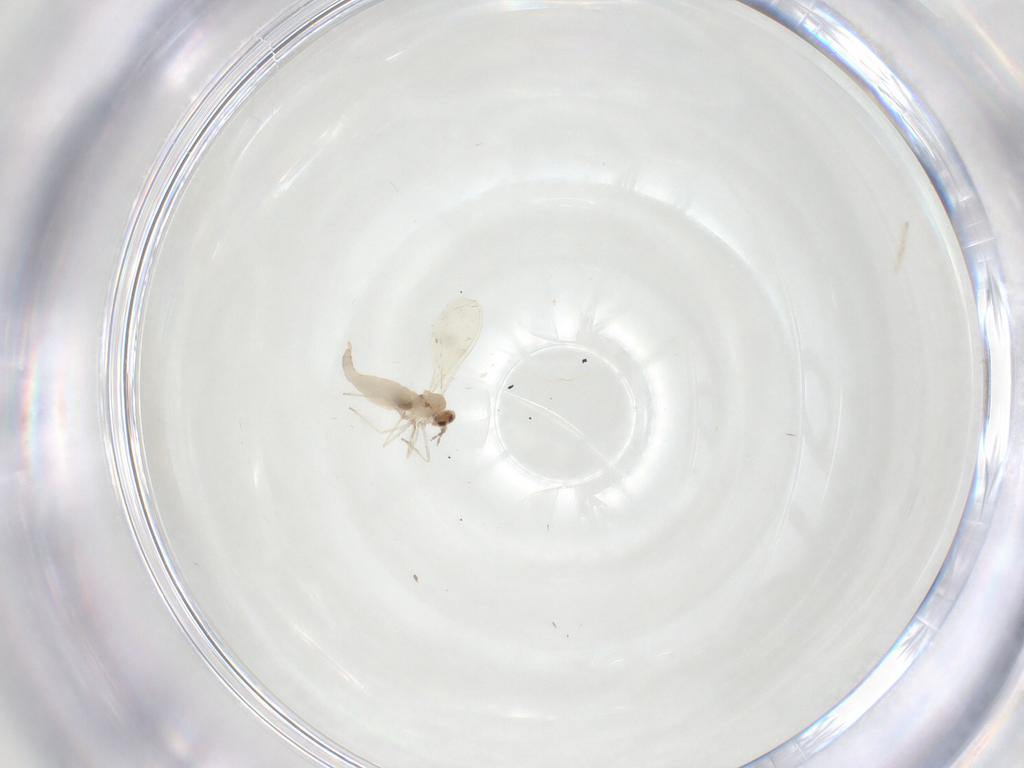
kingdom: Animalia
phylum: Arthropoda
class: Insecta
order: Diptera
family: Cecidomyiidae
